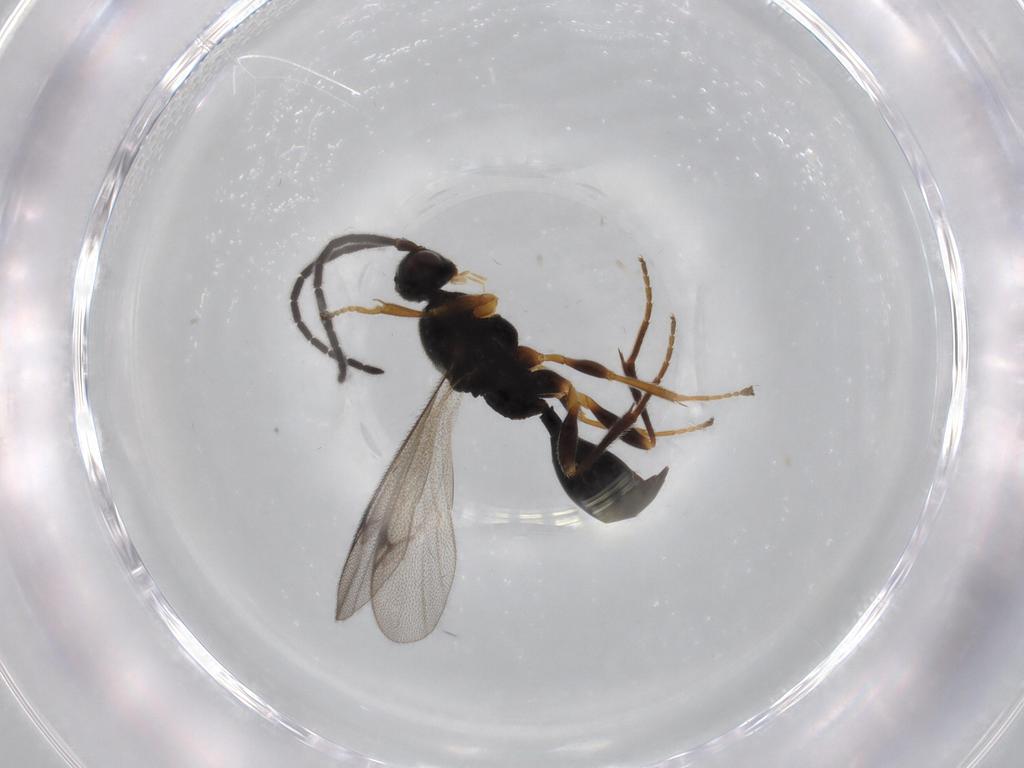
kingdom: Animalia
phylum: Arthropoda
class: Insecta
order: Hymenoptera
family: Proctotrupidae
